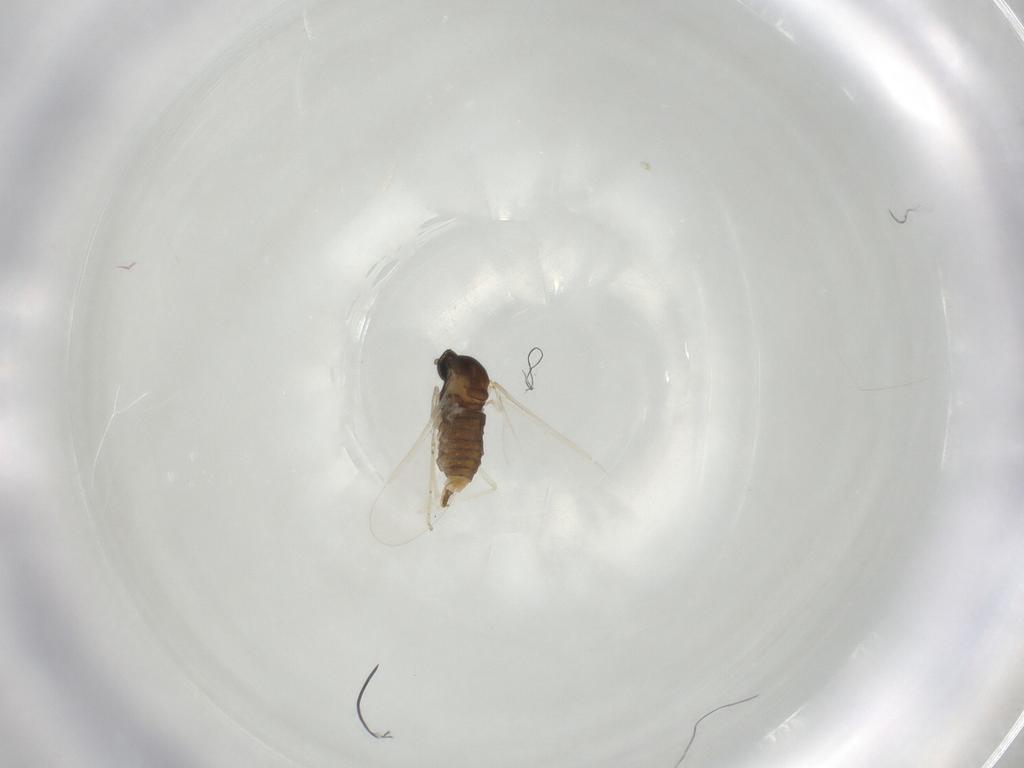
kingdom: Animalia
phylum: Arthropoda
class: Insecta
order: Diptera
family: Cecidomyiidae
